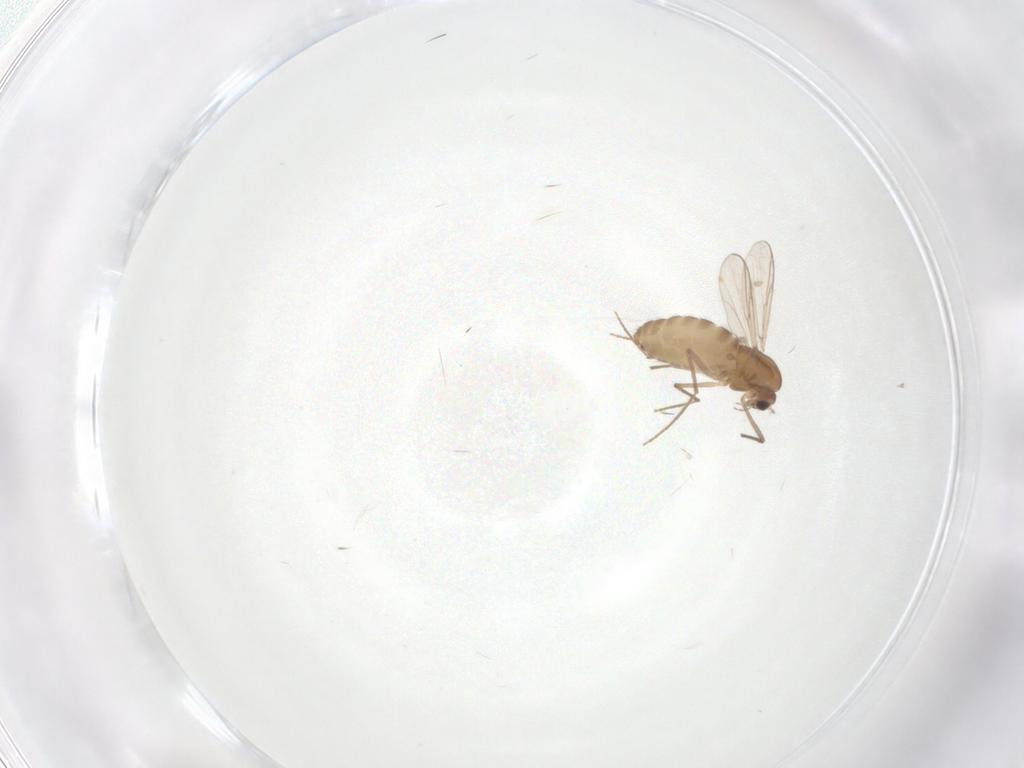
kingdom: Animalia
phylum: Arthropoda
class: Insecta
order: Diptera
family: Chironomidae
